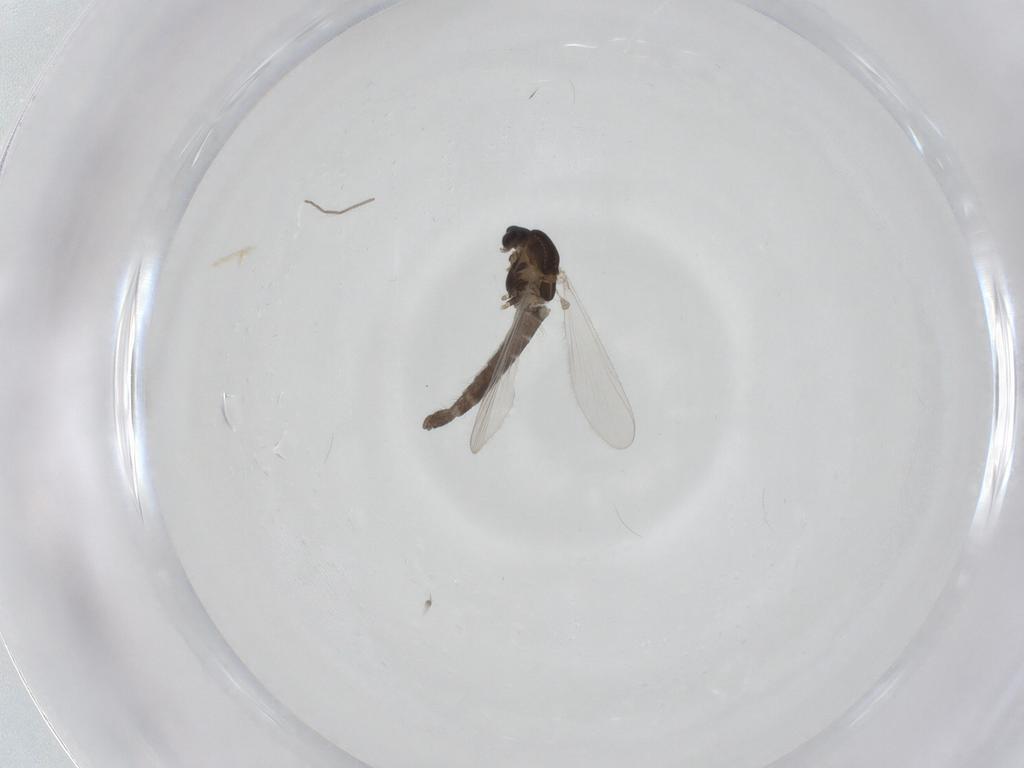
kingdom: Animalia
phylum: Arthropoda
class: Insecta
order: Diptera
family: Chironomidae
